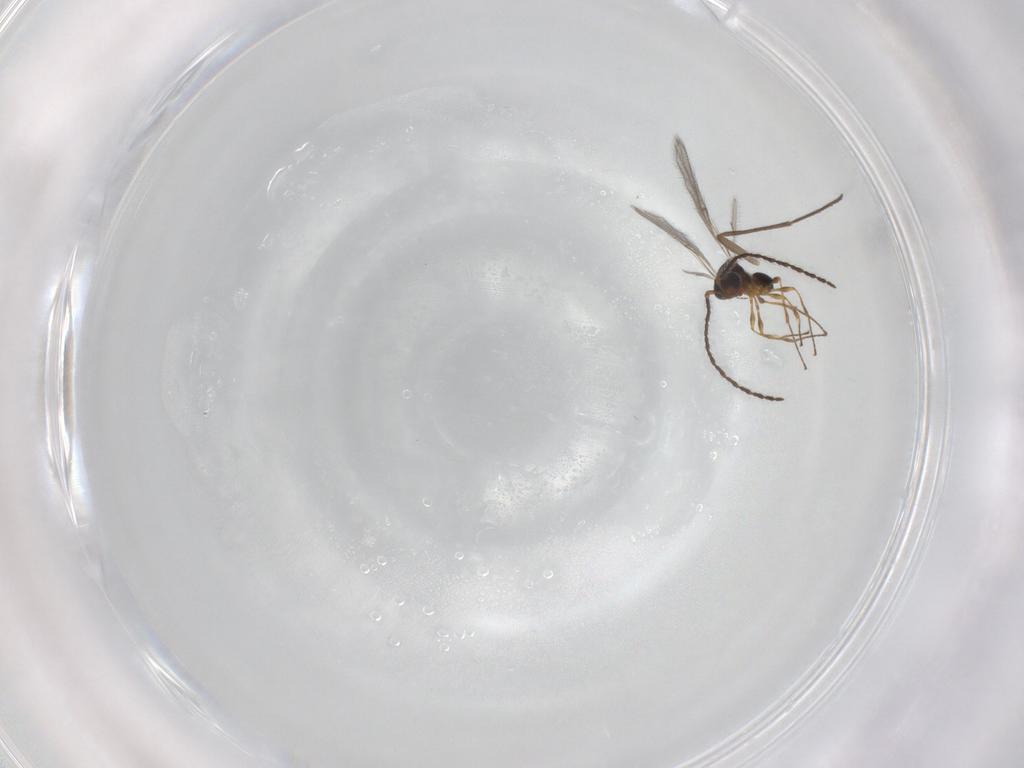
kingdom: Animalia
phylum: Arthropoda
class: Insecta
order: Hymenoptera
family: Diapriidae
